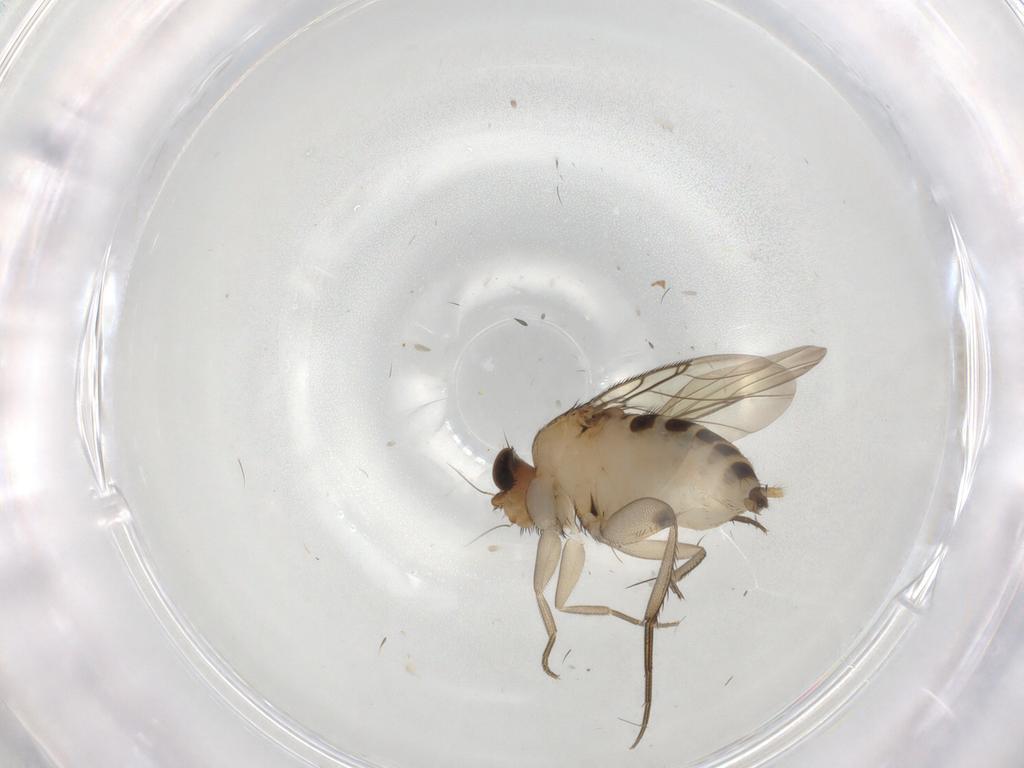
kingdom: Animalia
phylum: Arthropoda
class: Insecta
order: Diptera
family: Phoridae
